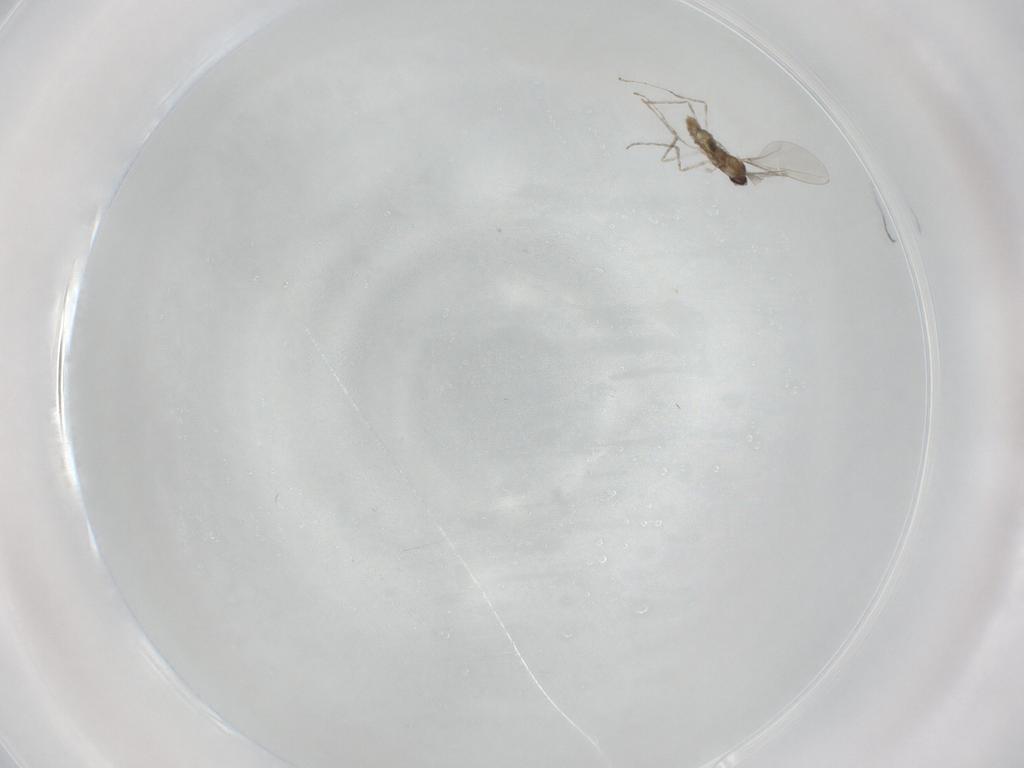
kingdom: Animalia
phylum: Arthropoda
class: Insecta
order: Diptera
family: Cecidomyiidae
